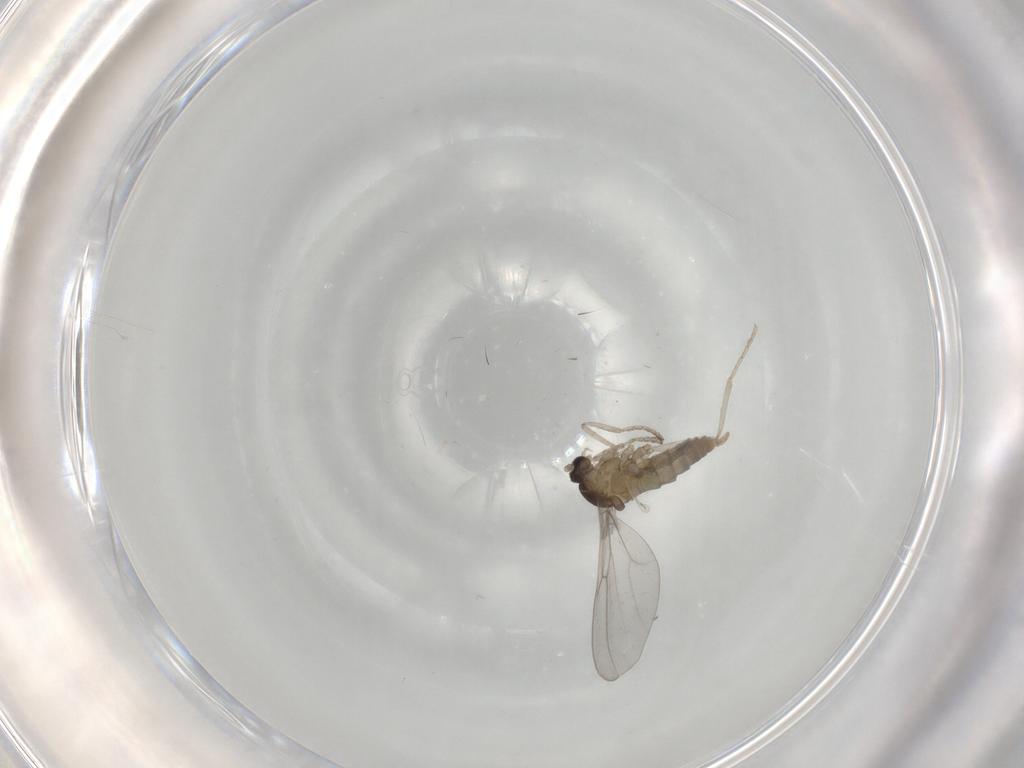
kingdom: Animalia
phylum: Arthropoda
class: Insecta
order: Diptera
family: Cecidomyiidae
